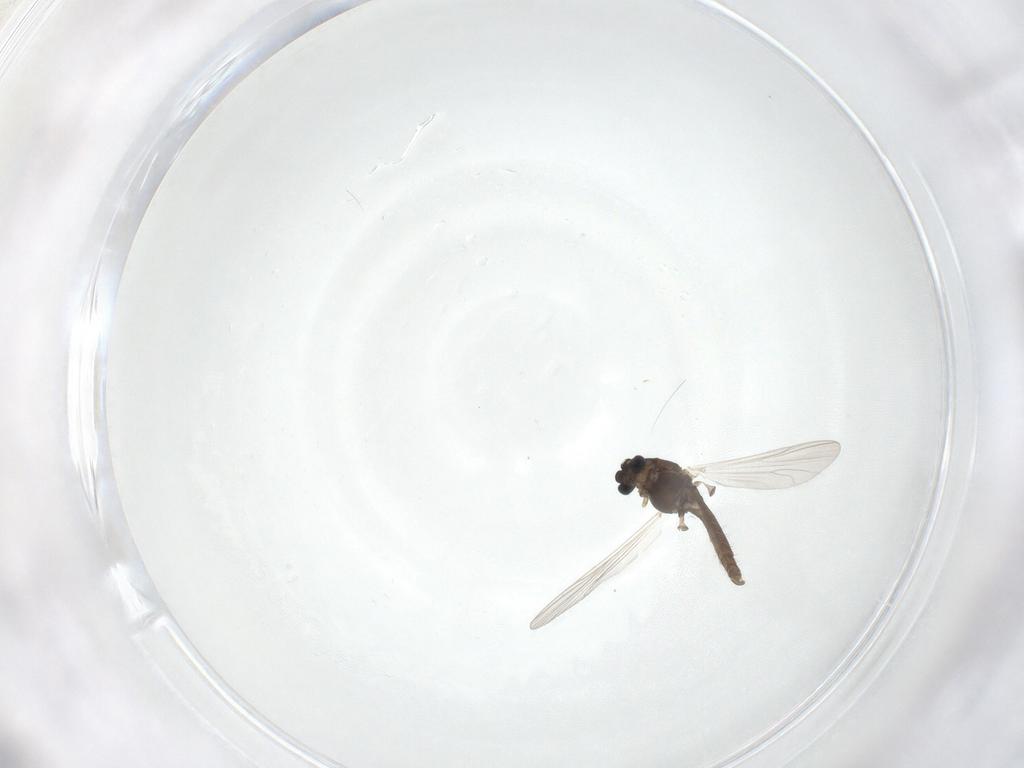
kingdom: Animalia
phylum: Arthropoda
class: Insecta
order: Diptera
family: Chironomidae
